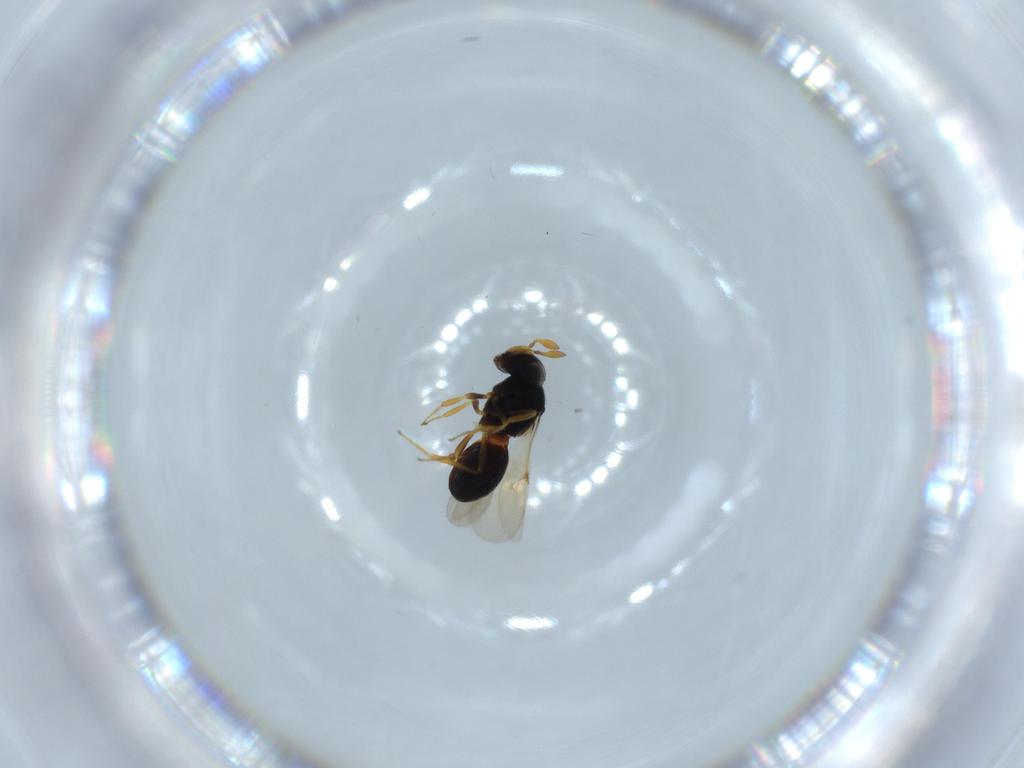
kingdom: Animalia
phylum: Arthropoda
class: Insecta
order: Hymenoptera
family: Scelionidae
